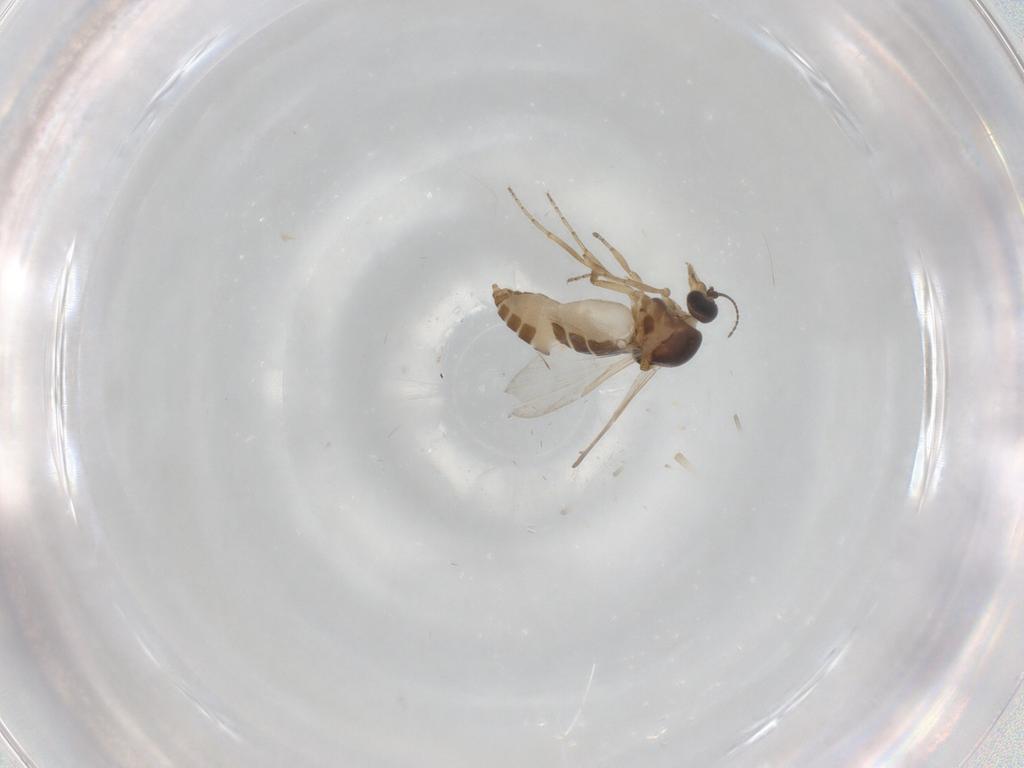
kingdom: Animalia
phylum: Arthropoda
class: Insecta
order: Diptera
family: Ceratopogonidae
